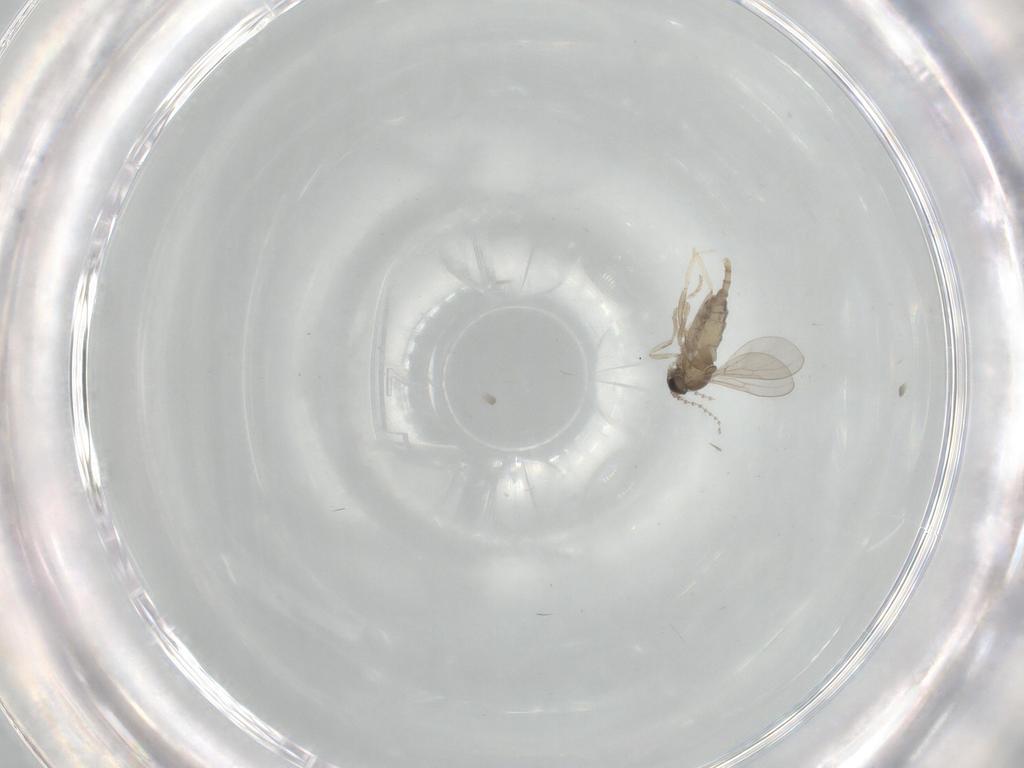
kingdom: Animalia
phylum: Arthropoda
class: Insecta
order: Diptera
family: Cecidomyiidae
